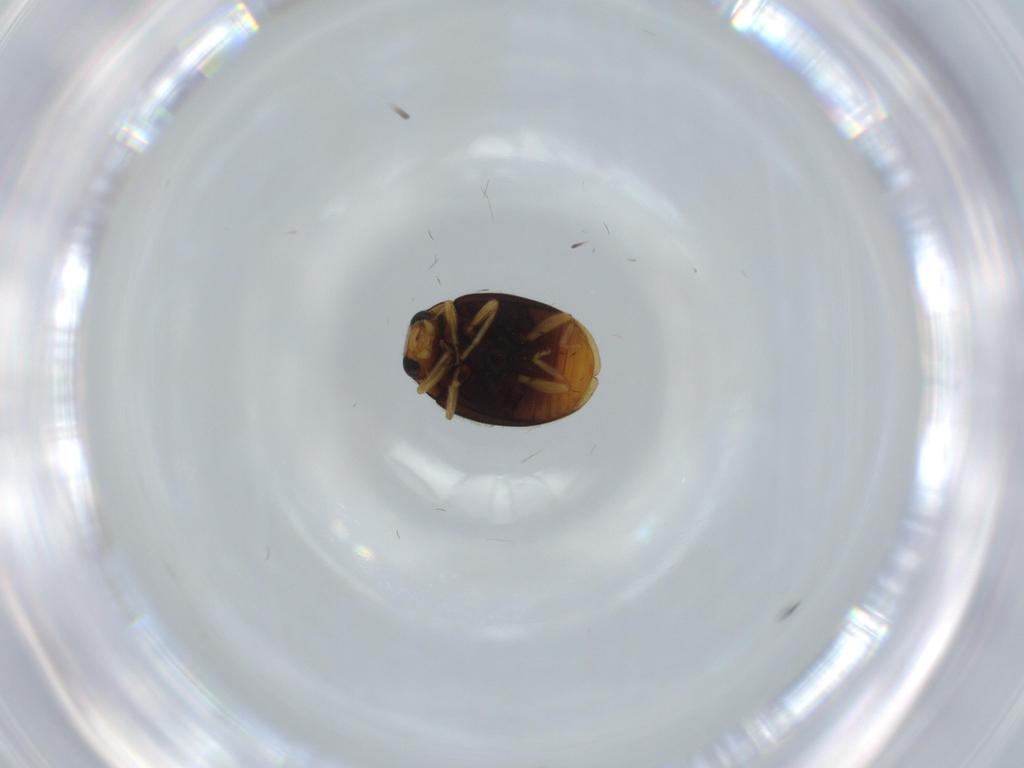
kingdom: Animalia
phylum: Arthropoda
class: Insecta
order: Coleoptera
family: Chrysomelidae
